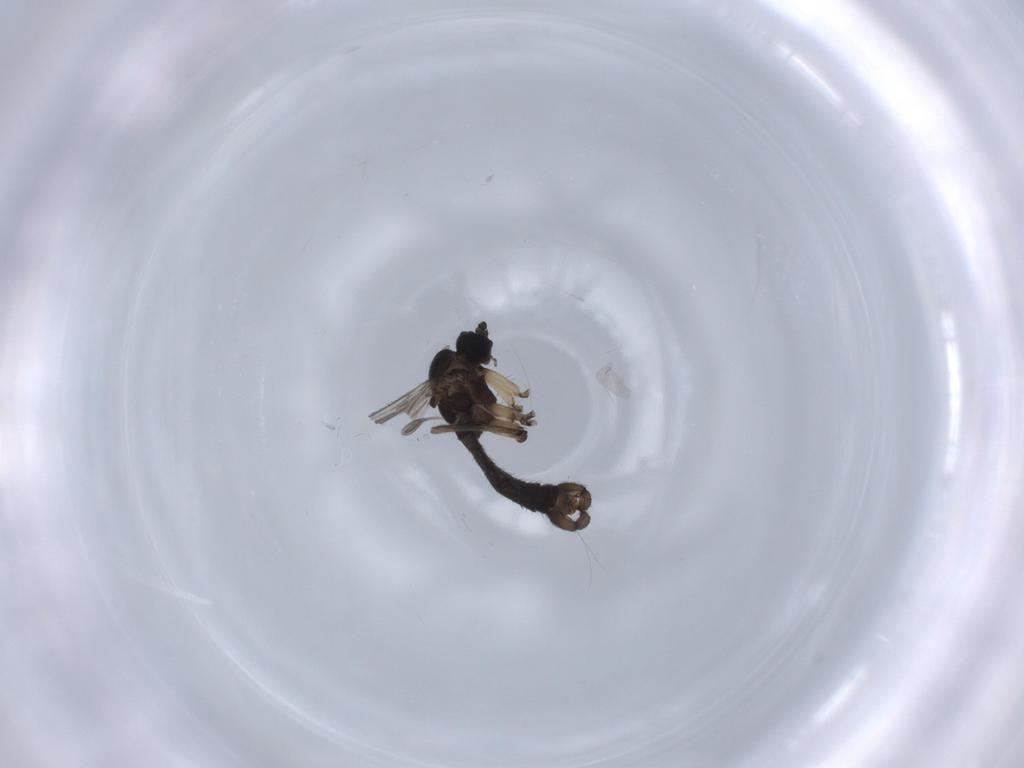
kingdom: Animalia
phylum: Arthropoda
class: Insecta
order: Diptera
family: Sciaridae
